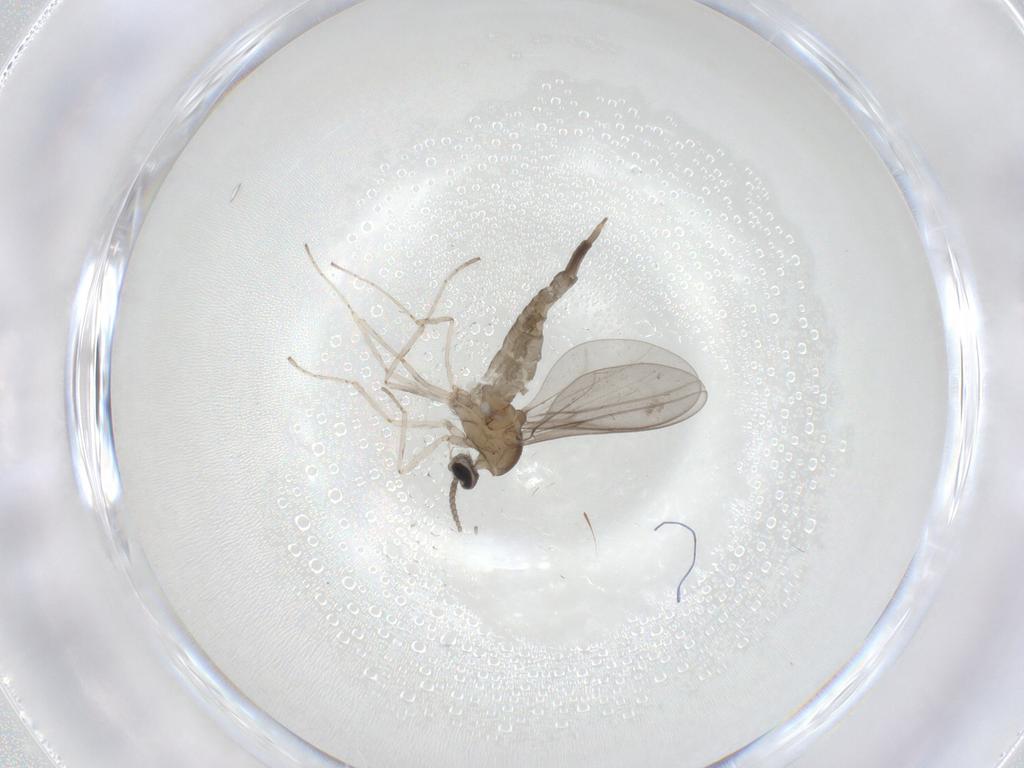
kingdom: Animalia
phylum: Arthropoda
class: Insecta
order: Diptera
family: Cecidomyiidae
